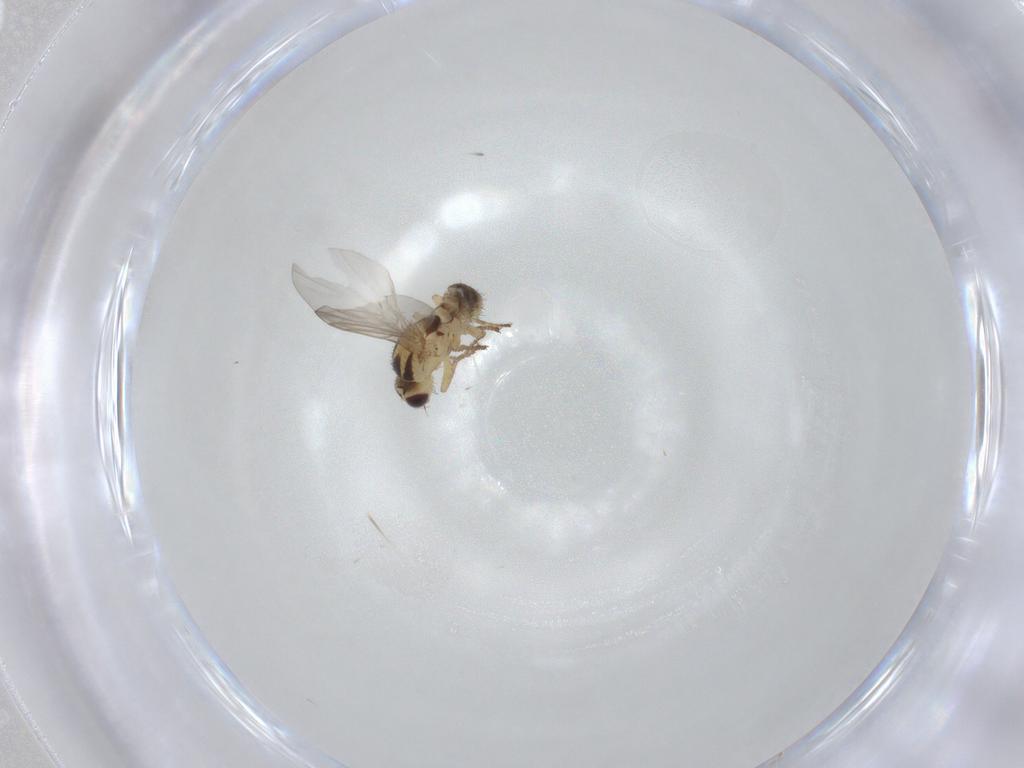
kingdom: Animalia
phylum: Arthropoda
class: Insecta
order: Diptera
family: Agromyzidae
